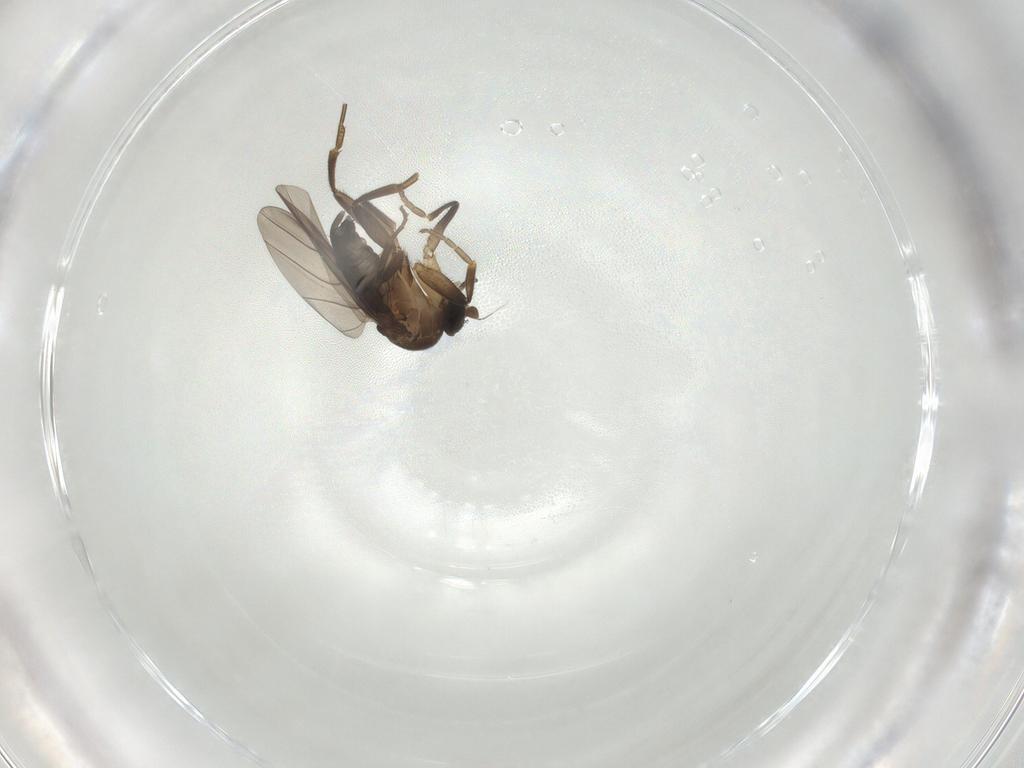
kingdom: Animalia
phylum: Arthropoda
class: Insecta
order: Diptera
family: Phoridae
